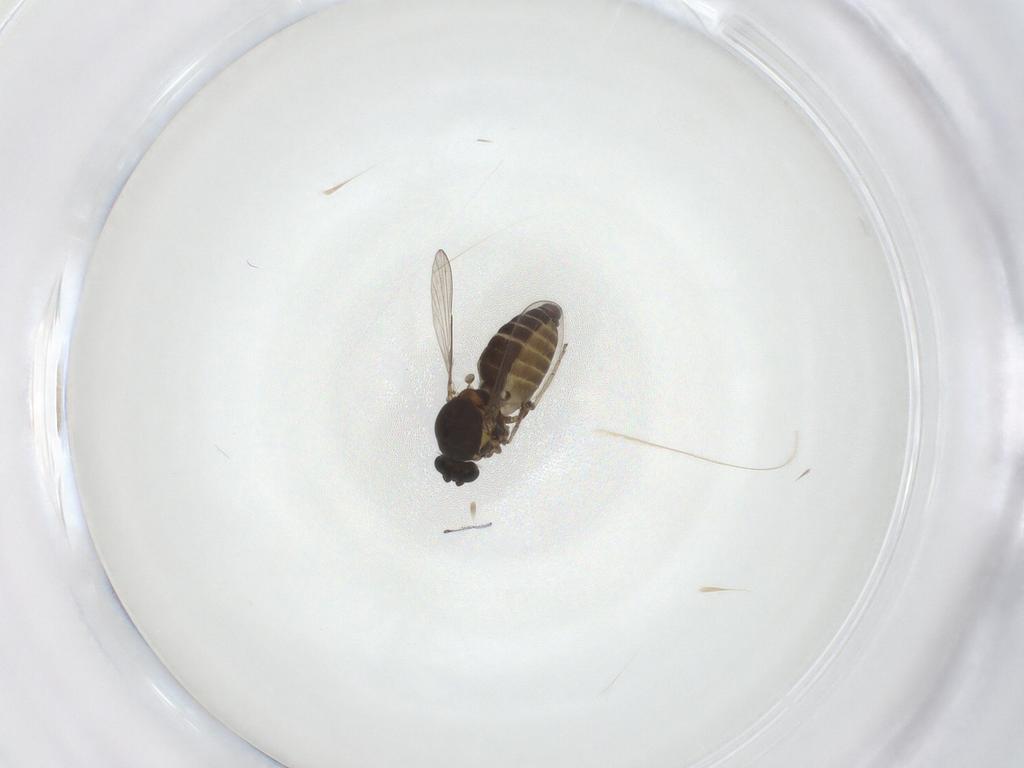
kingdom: Animalia
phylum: Arthropoda
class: Insecta
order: Diptera
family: Ceratopogonidae
